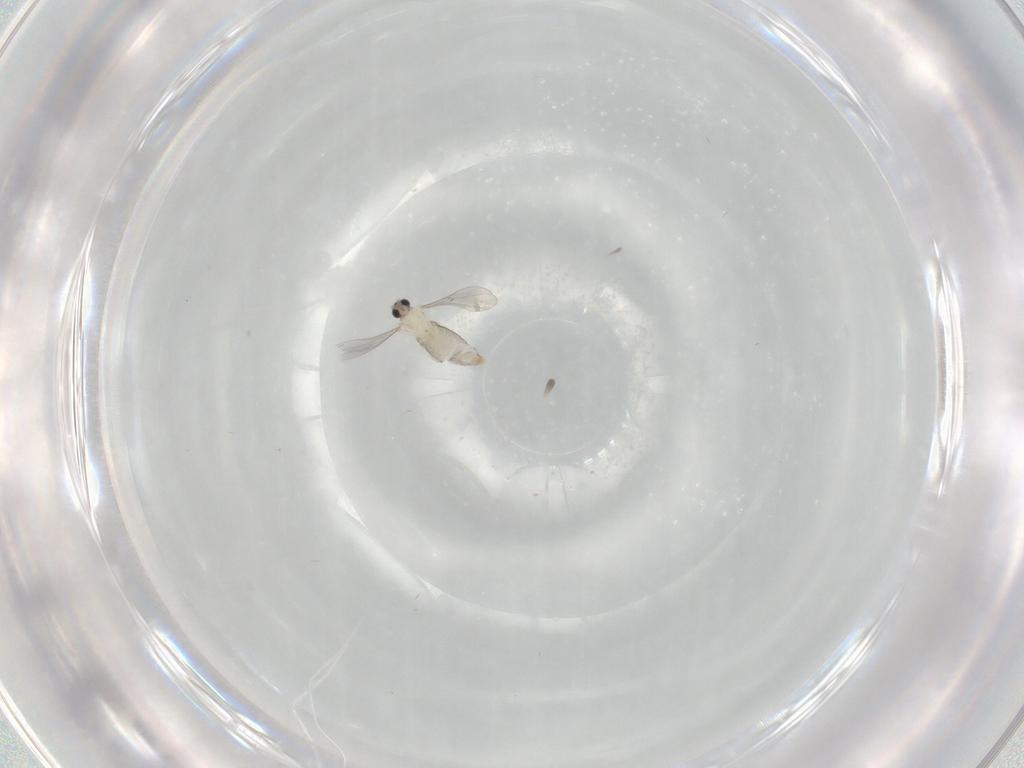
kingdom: Animalia
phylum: Arthropoda
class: Insecta
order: Diptera
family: Cecidomyiidae
